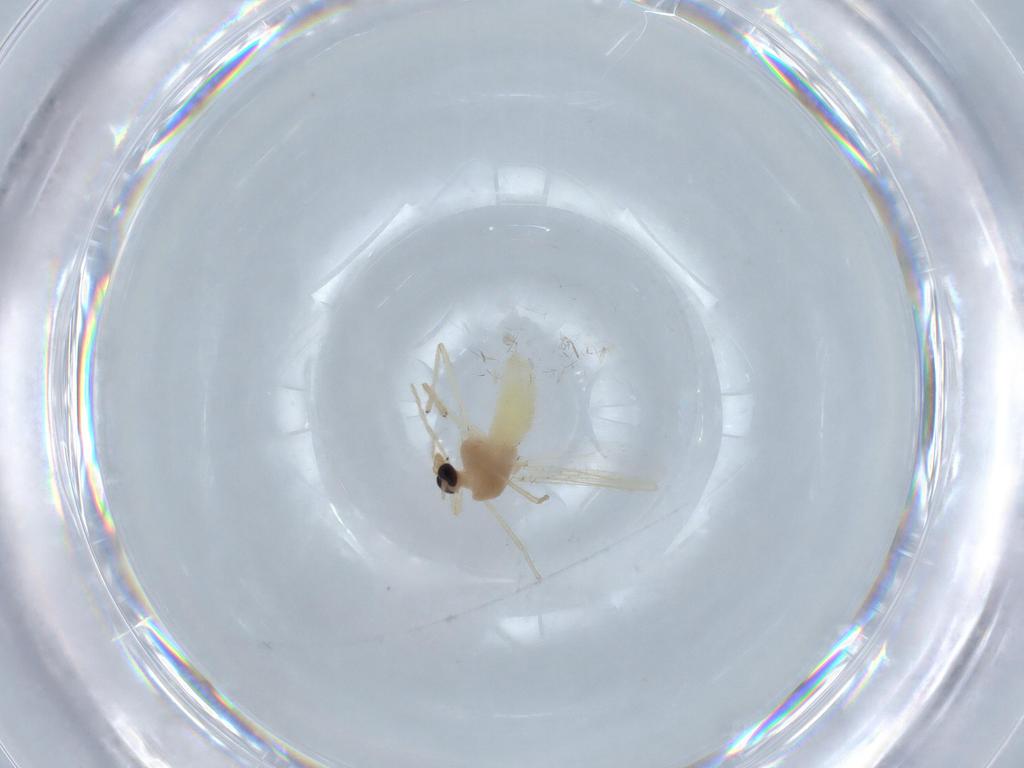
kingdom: Animalia
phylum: Arthropoda
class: Insecta
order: Diptera
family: Chironomidae
